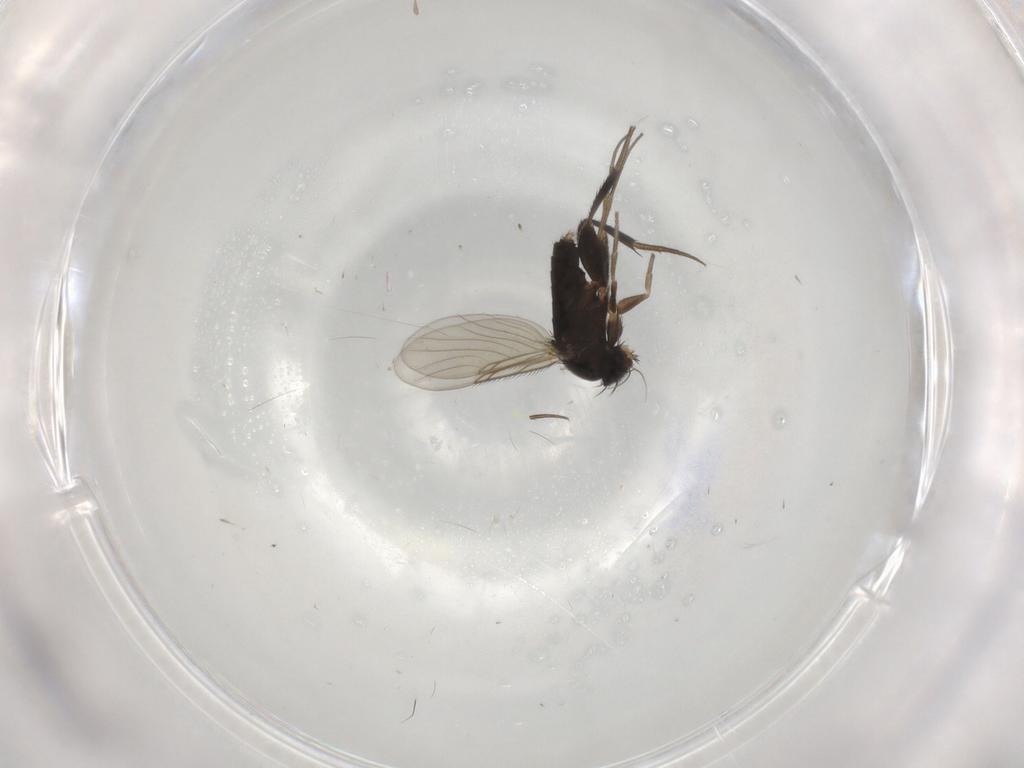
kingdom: Animalia
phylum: Arthropoda
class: Insecta
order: Diptera
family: Phoridae
